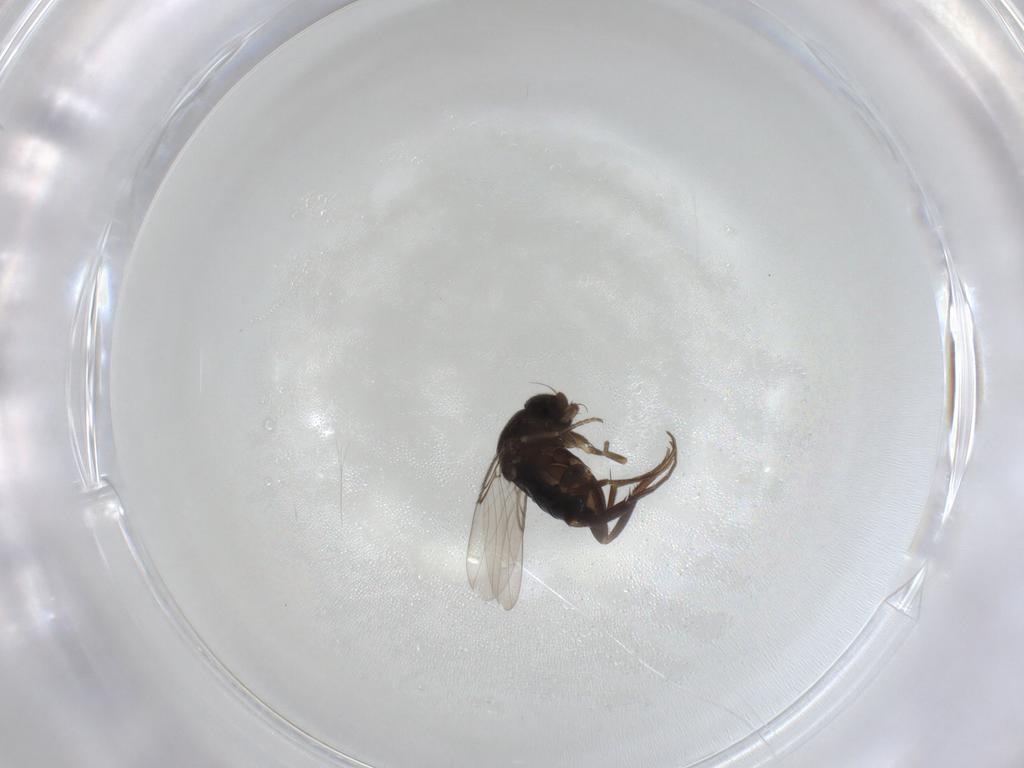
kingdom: Animalia
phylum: Arthropoda
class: Insecta
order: Diptera
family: Phoridae
